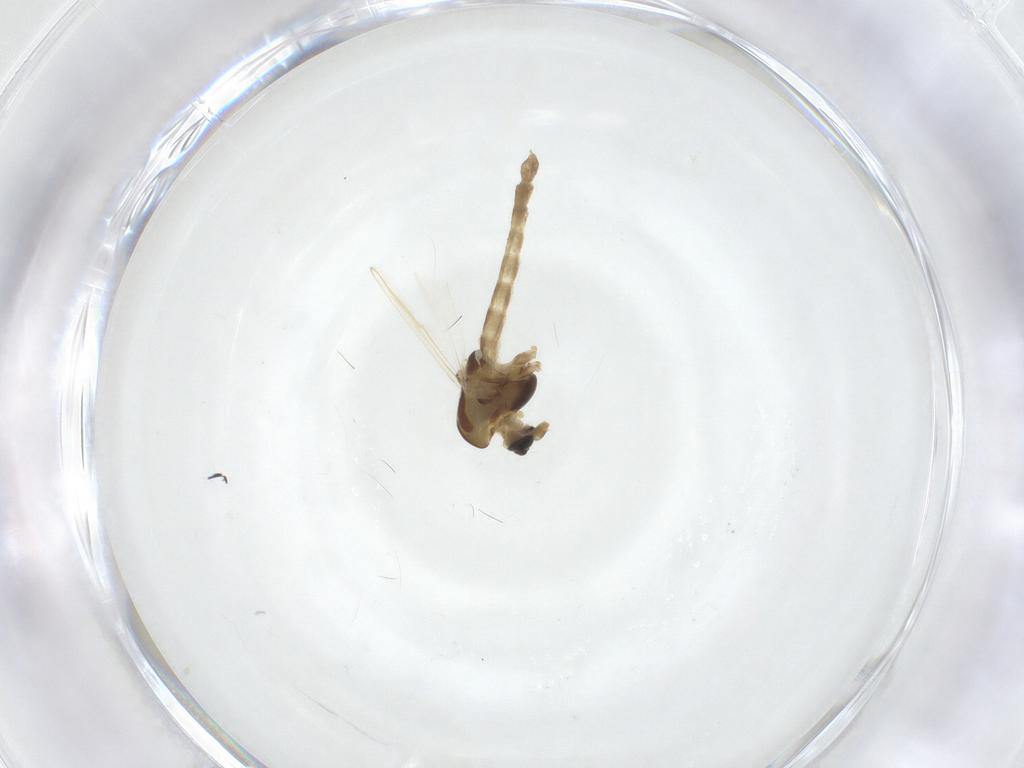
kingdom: Animalia
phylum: Arthropoda
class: Insecta
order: Diptera
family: Chironomidae
